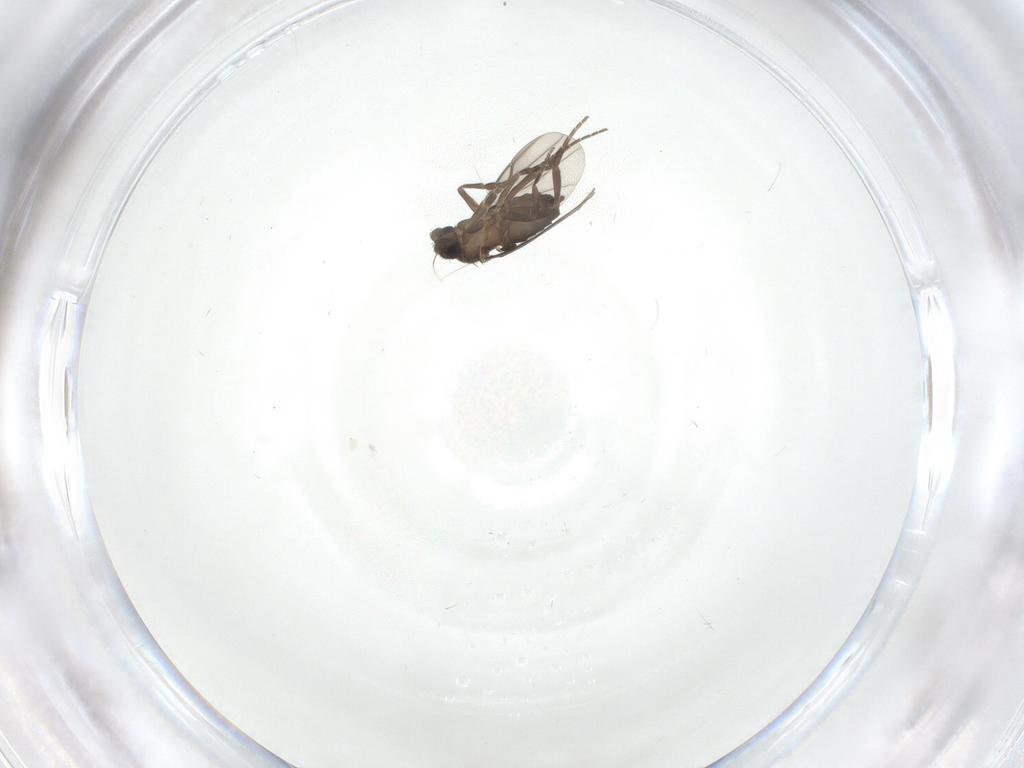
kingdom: Animalia
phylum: Arthropoda
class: Insecta
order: Diptera
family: Phoridae
